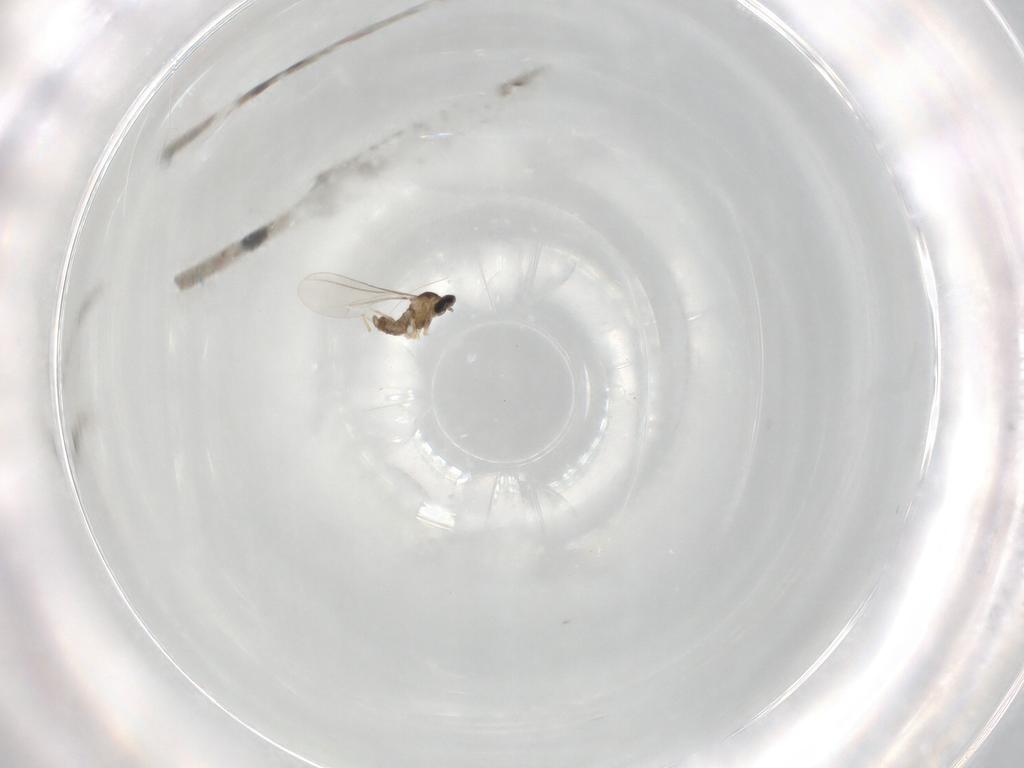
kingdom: Animalia
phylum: Arthropoda
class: Insecta
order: Diptera
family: Cecidomyiidae
